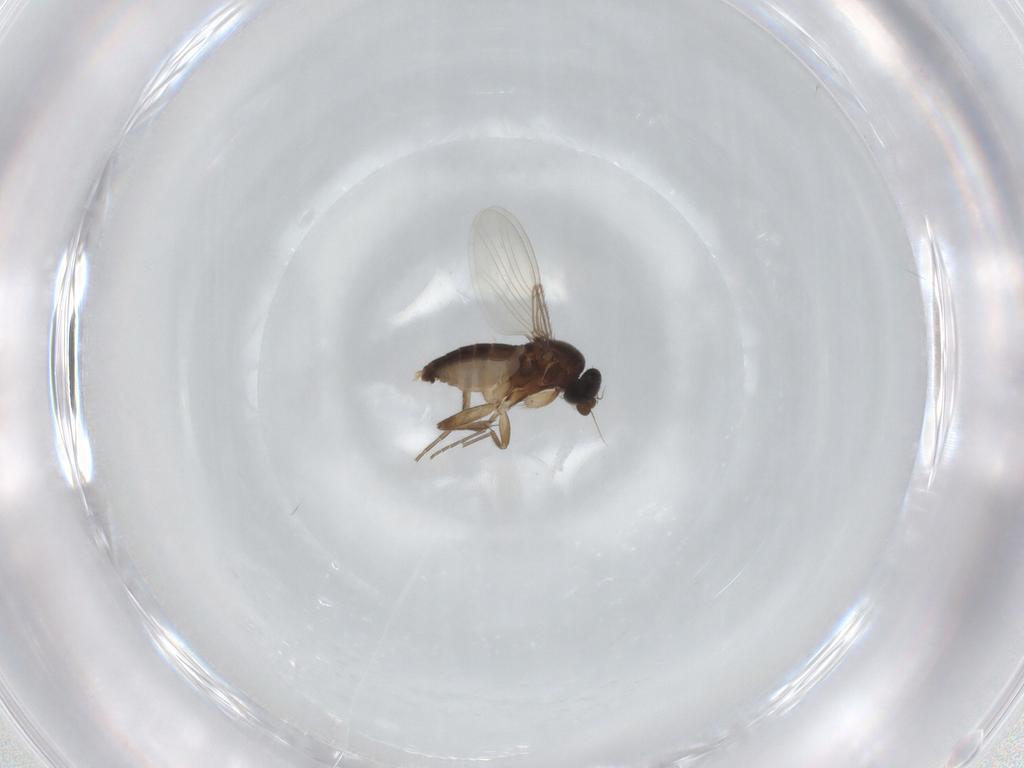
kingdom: Animalia
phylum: Arthropoda
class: Insecta
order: Diptera
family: Phoridae
